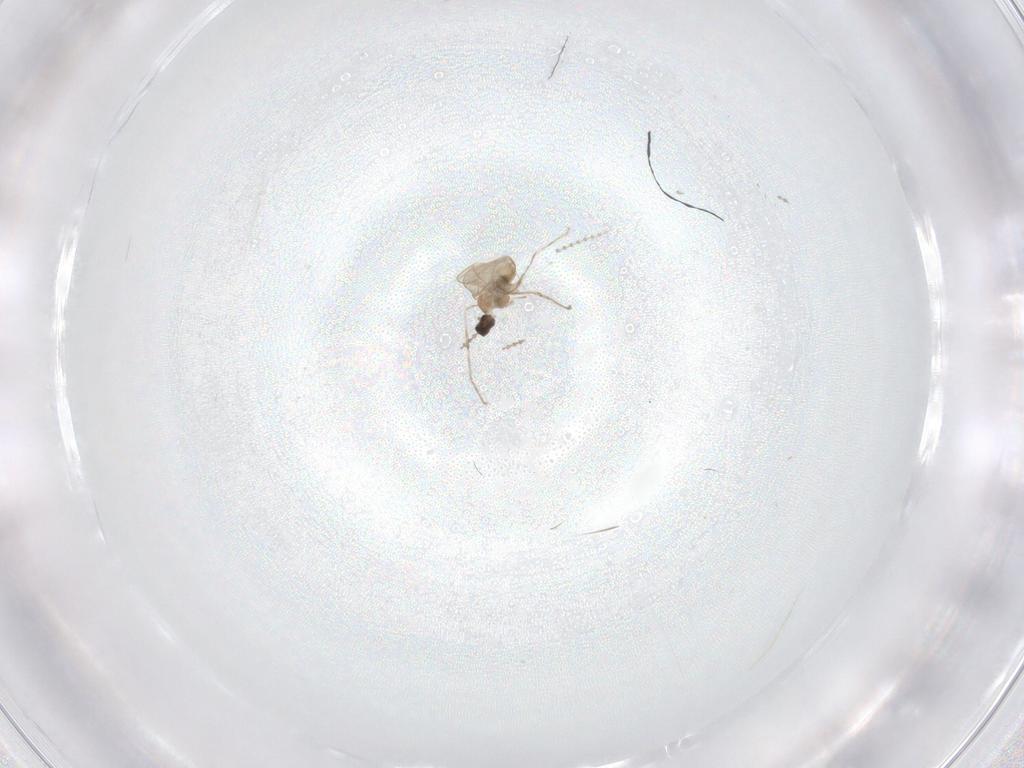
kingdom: Animalia
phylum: Arthropoda
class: Insecta
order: Diptera
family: Cecidomyiidae
